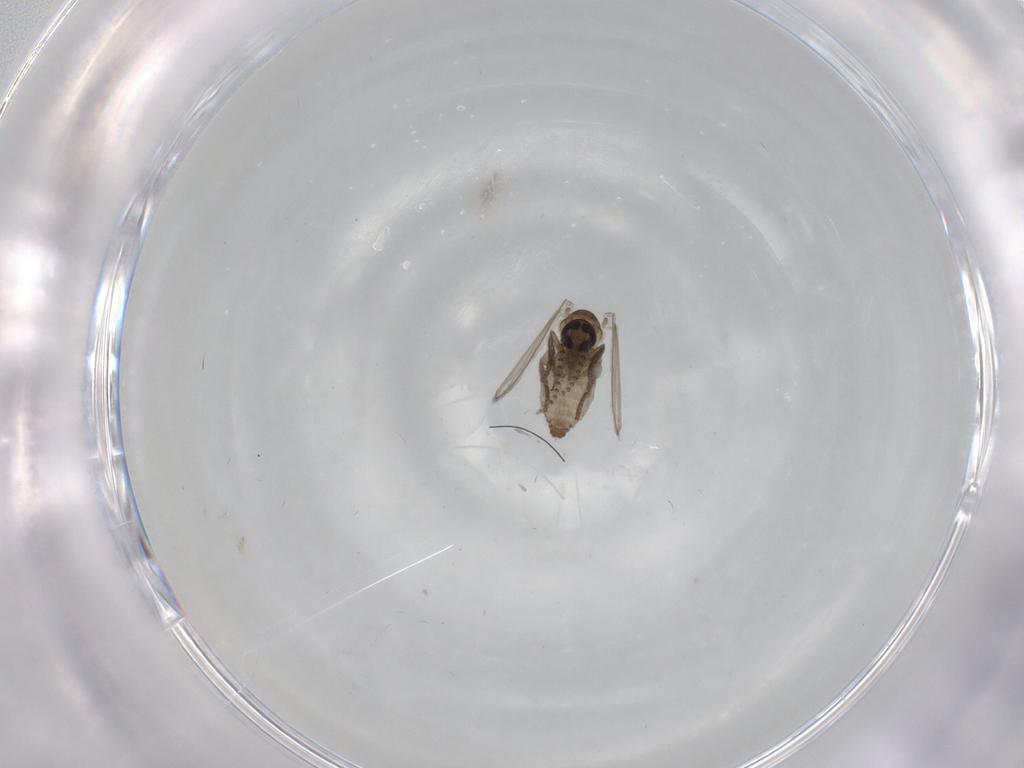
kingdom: Animalia
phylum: Arthropoda
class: Insecta
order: Diptera
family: Psychodidae
